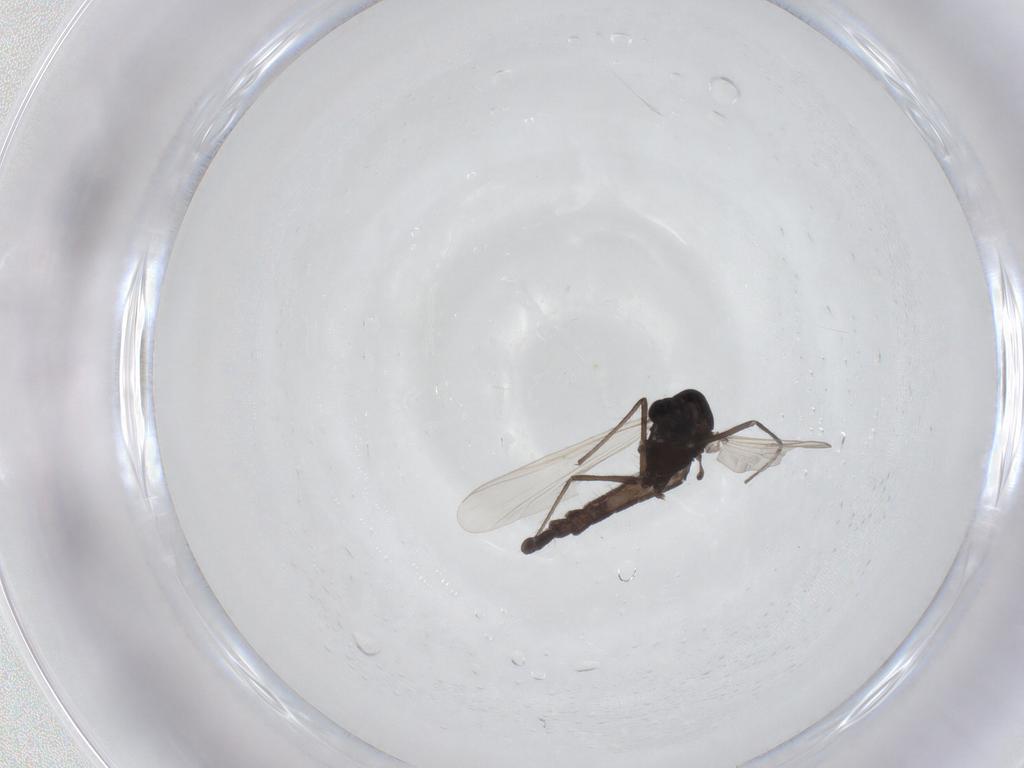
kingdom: Animalia
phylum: Arthropoda
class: Insecta
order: Diptera
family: Chironomidae
